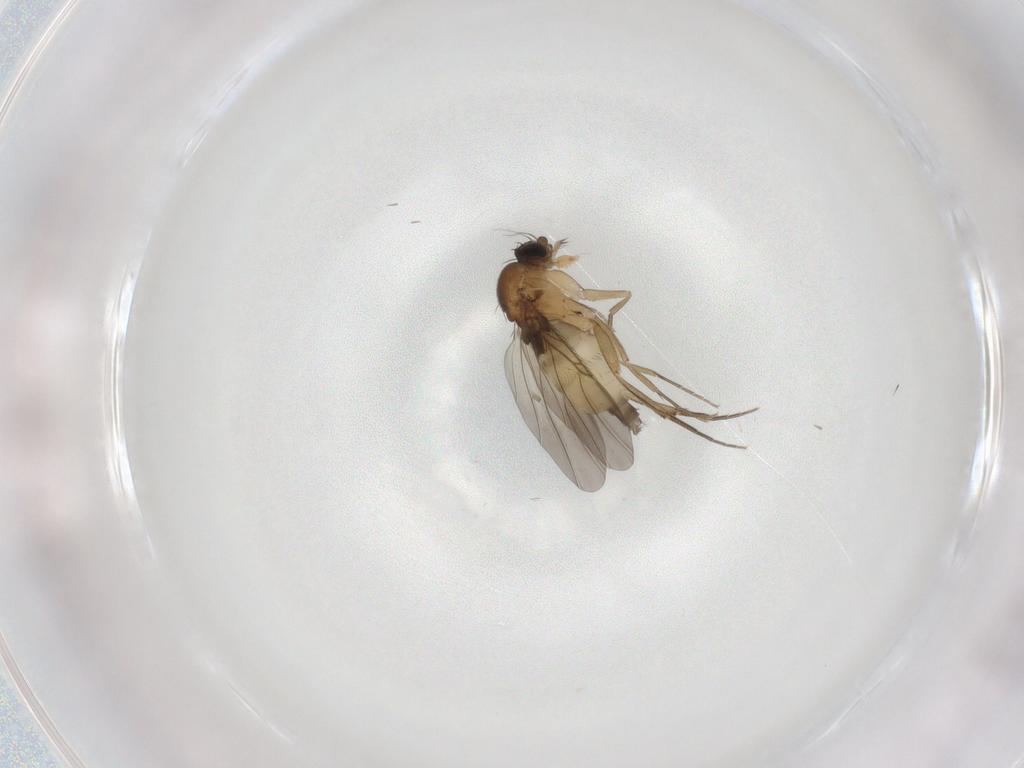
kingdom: Animalia
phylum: Arthropoda
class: Insecta
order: Diptera
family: Phoridae
